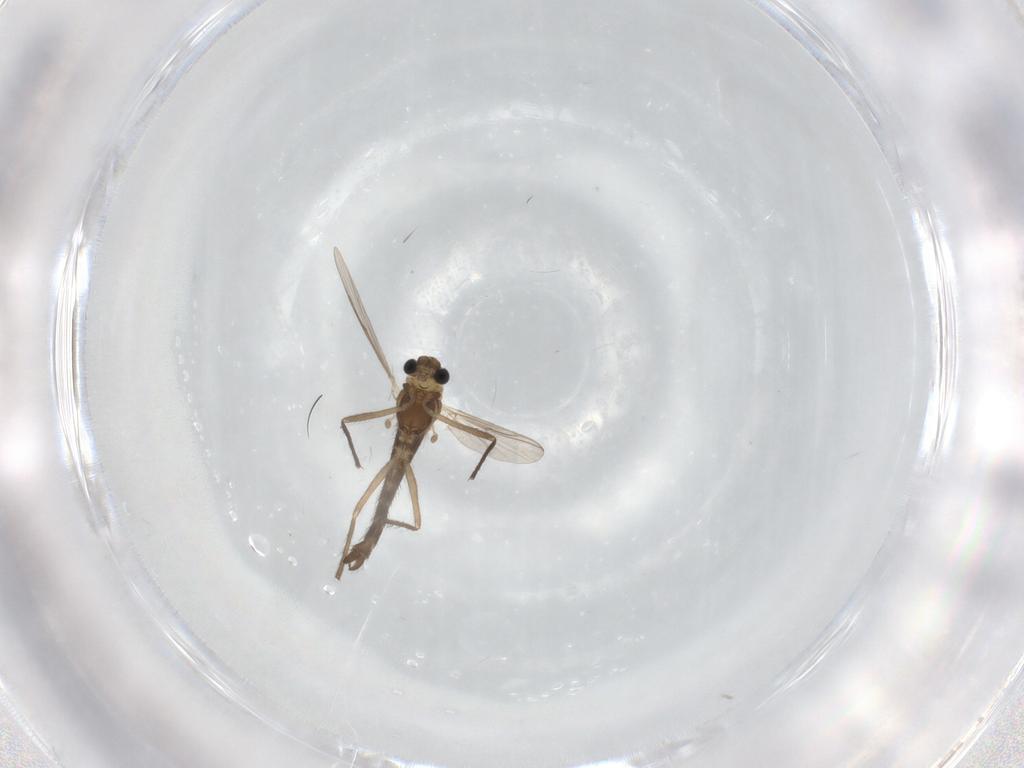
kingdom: Animalia
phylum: Arthropoda
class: Insecta
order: Diptera
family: Chironomidae
